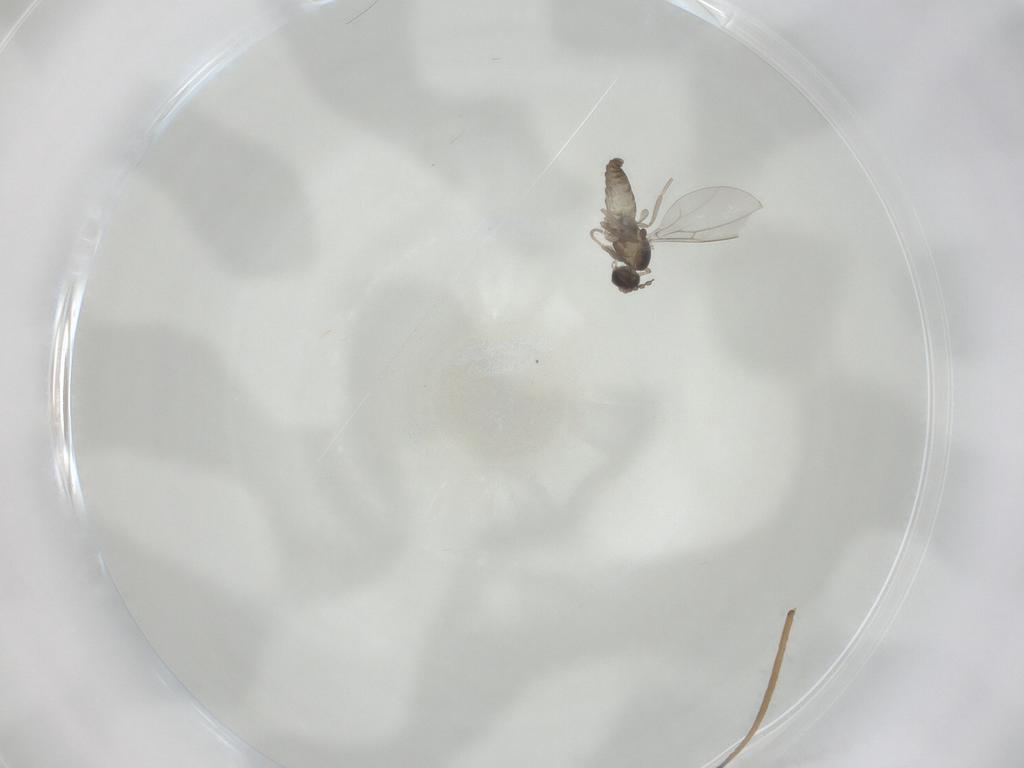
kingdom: Animalia
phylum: Arthropoda
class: Insecta
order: Diptera
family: Cecidomyiidae
